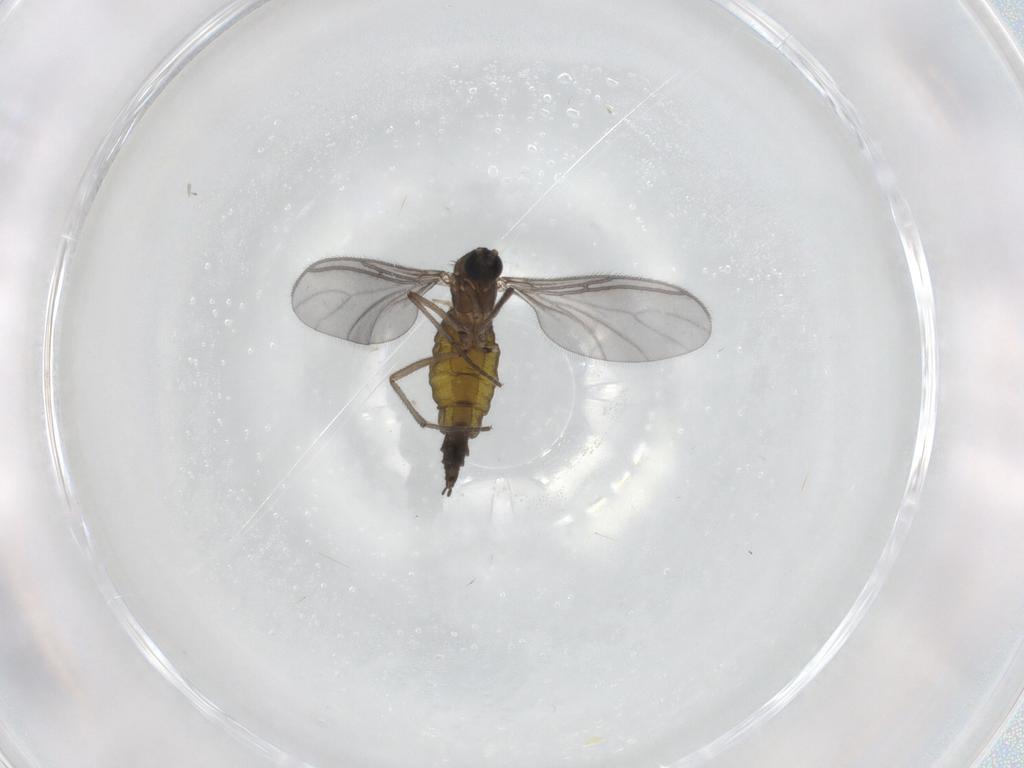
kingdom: Animalia
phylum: Arthropoda
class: Insecta
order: Diptera
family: Sciaridae
